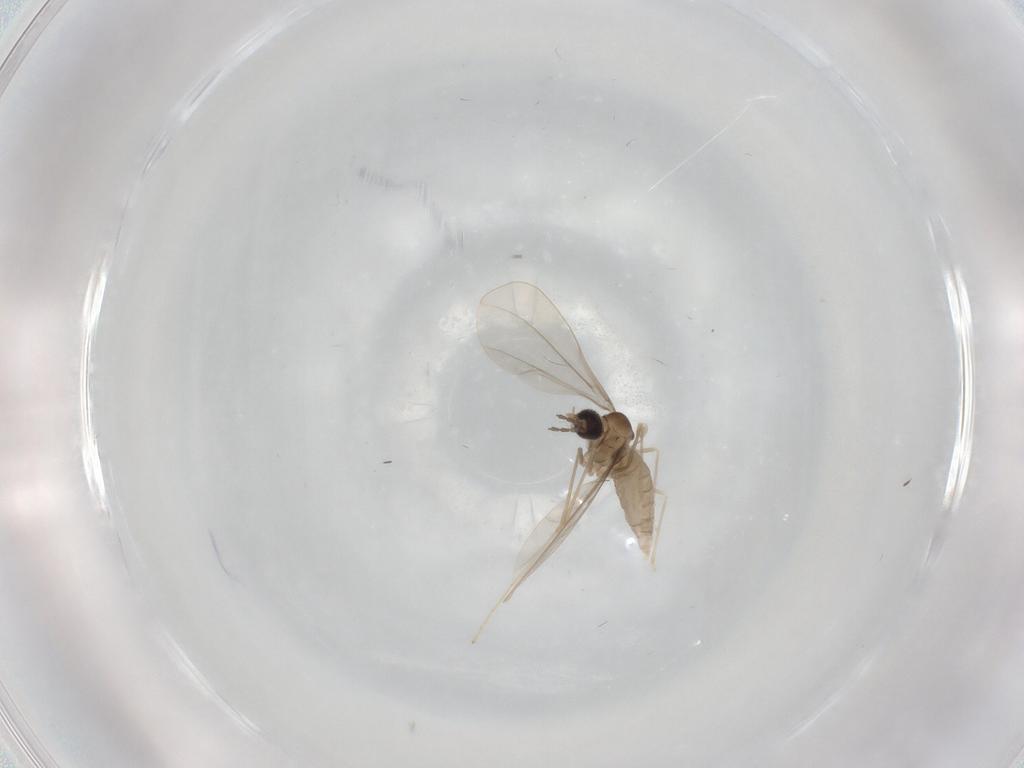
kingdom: Animalia
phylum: Arthropoda
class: Insecta
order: Diptera
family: Cecidomyiidae
